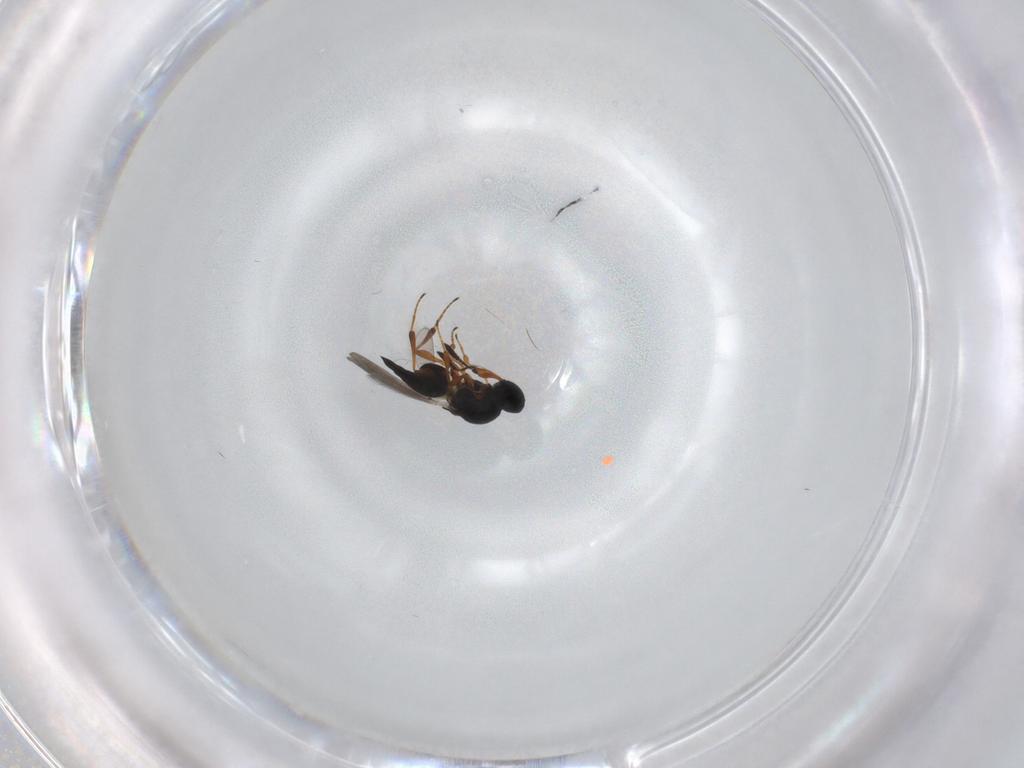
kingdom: Animalia
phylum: Arthropoda
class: Insecta
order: Hymenoptera
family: Platygastridae
